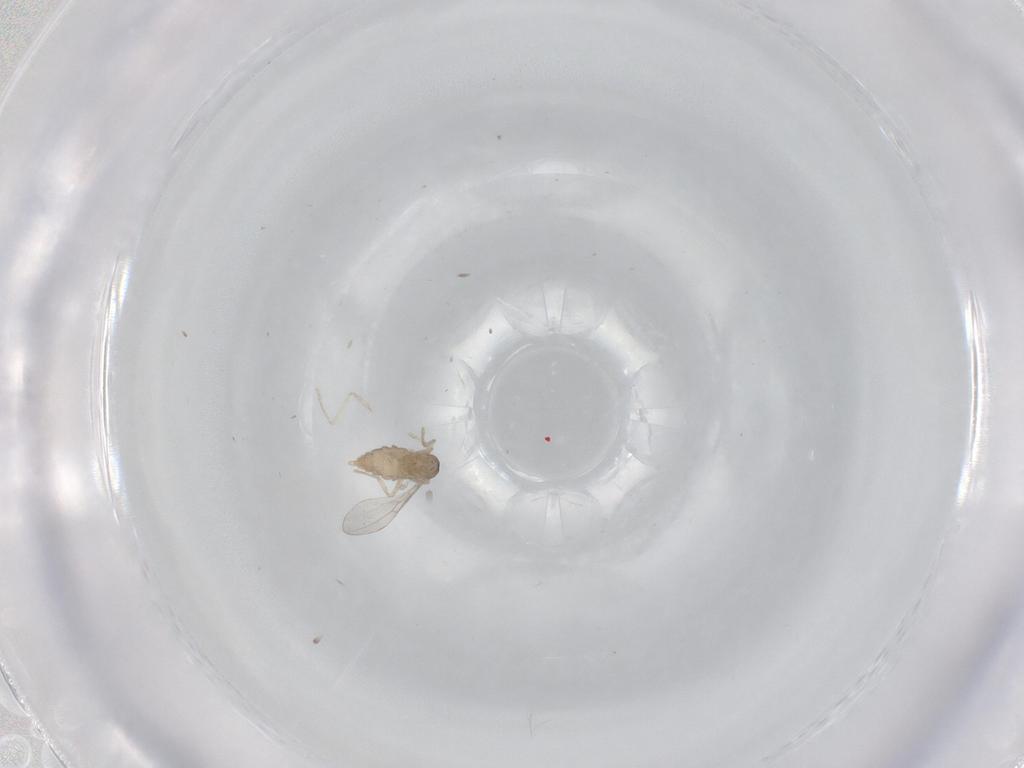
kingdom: Animalia
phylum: Arthropoda
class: Insecta
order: Diptera
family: Cecidomyiidae
